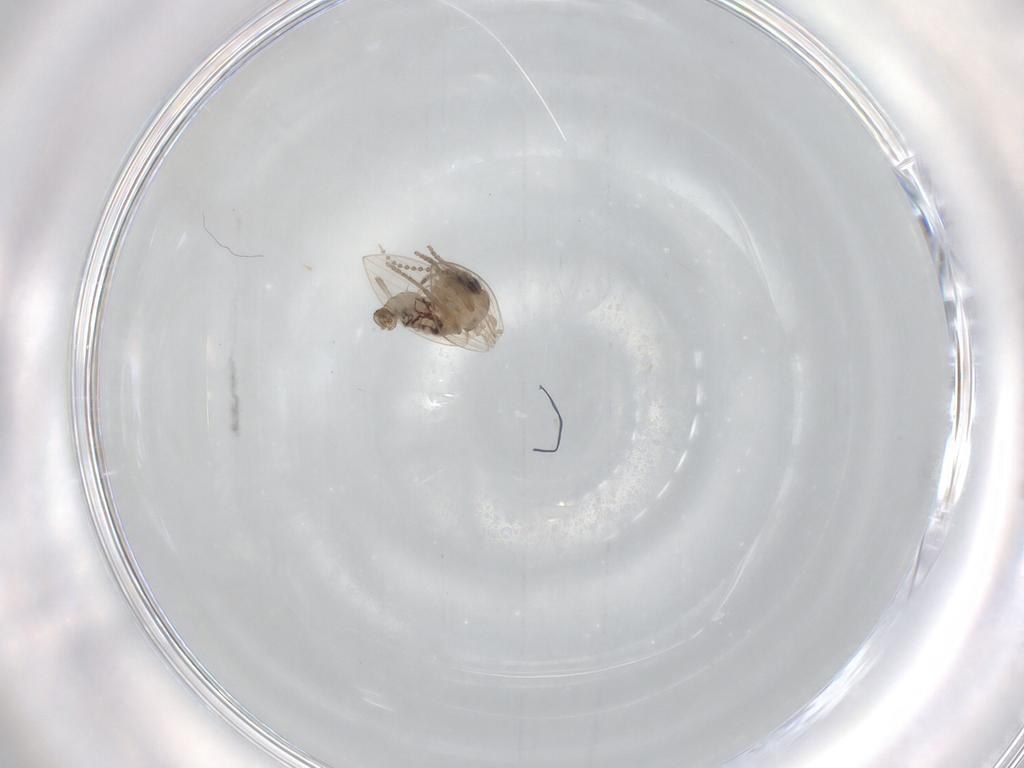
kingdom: Animalia
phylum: Arthropoda
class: Insecta
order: Diptera
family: Psychodidae
